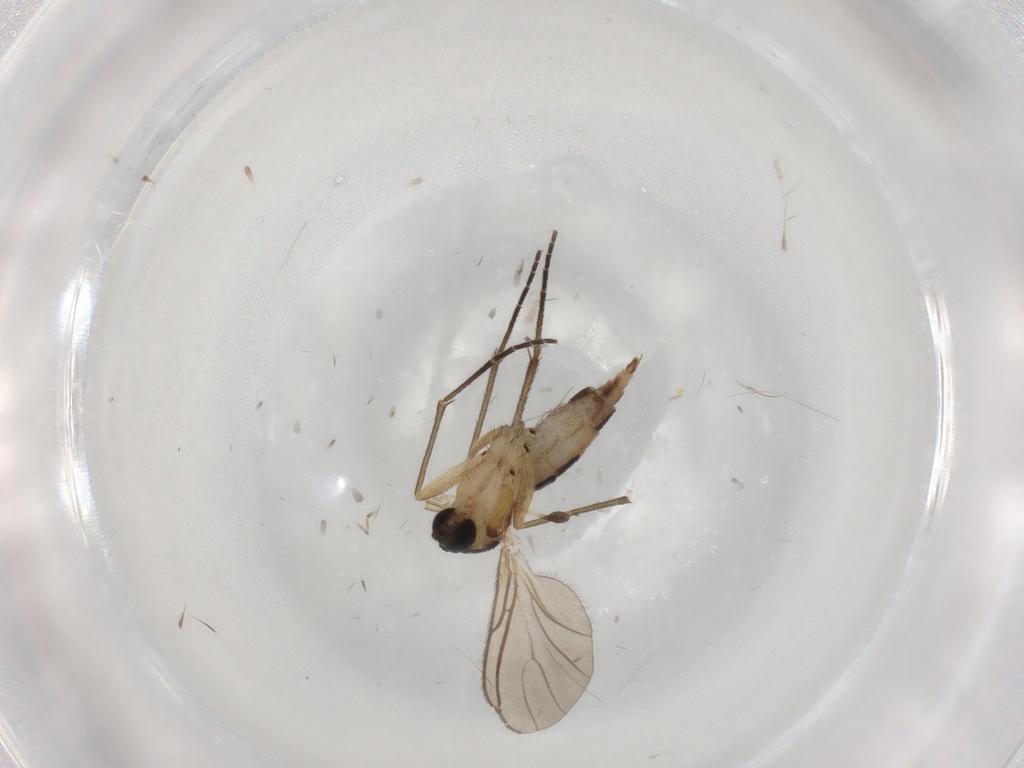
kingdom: Animalia
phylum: Arthropoda
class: Insecta
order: Diptera
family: Sciaridae
